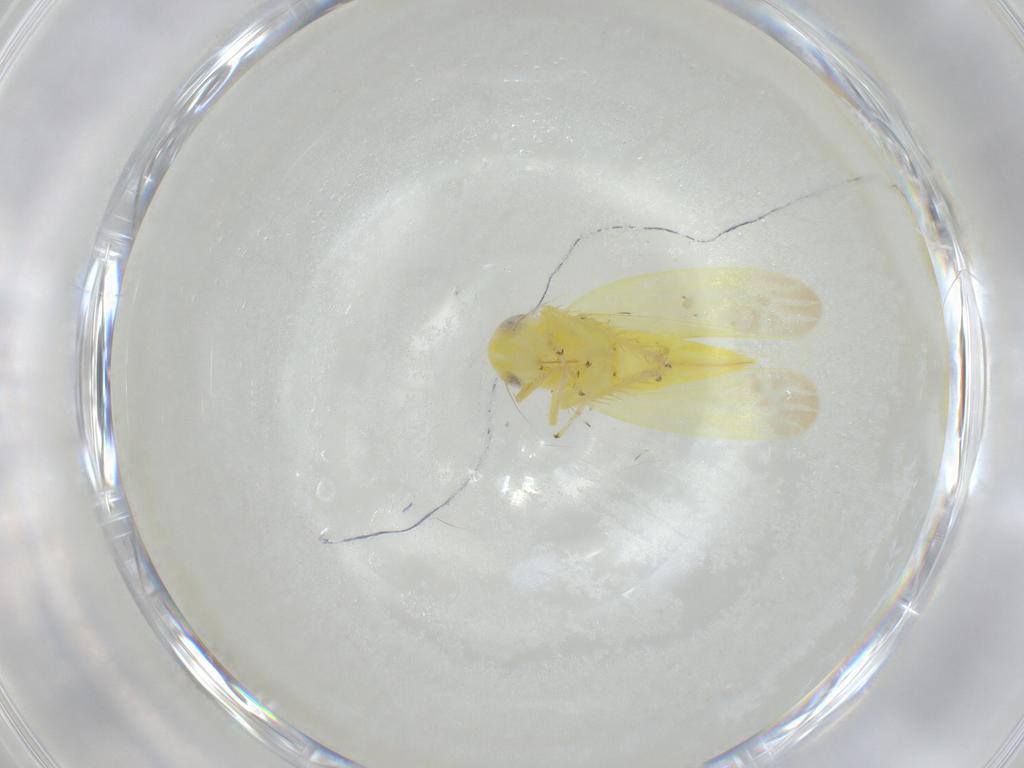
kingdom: Animalia
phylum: Arthropoda
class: Insecta
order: Hemiptera
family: Cicadellidae
